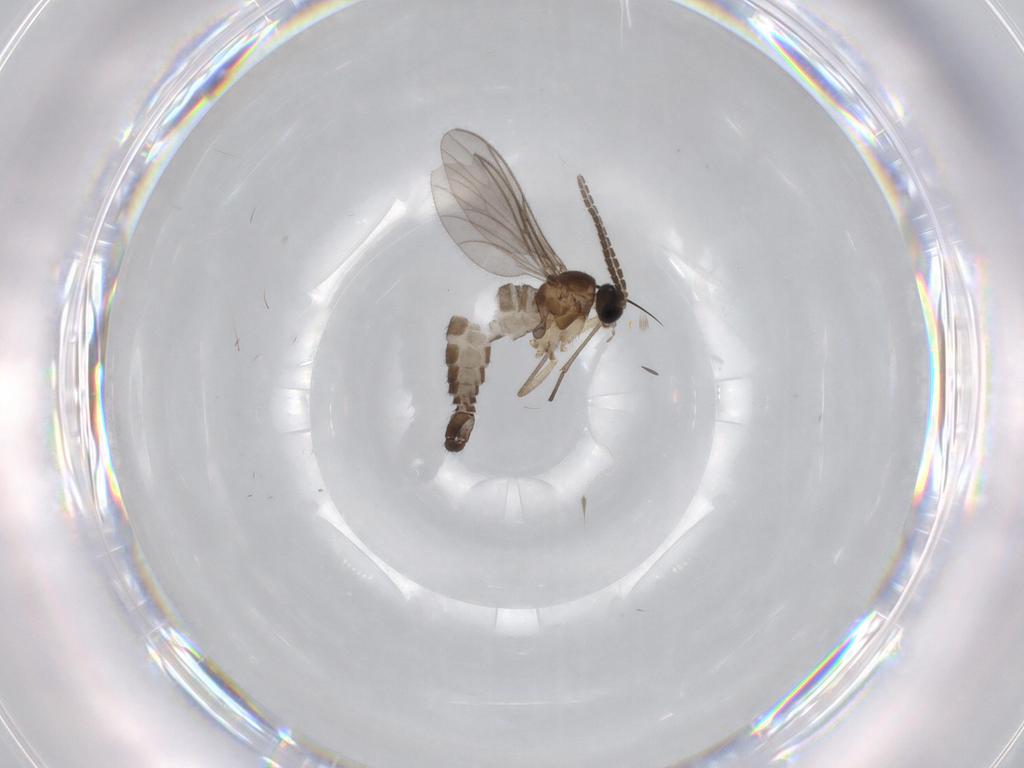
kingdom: Animalia
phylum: Arthropoda
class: Insecta
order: Diptera
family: Chironomidae
